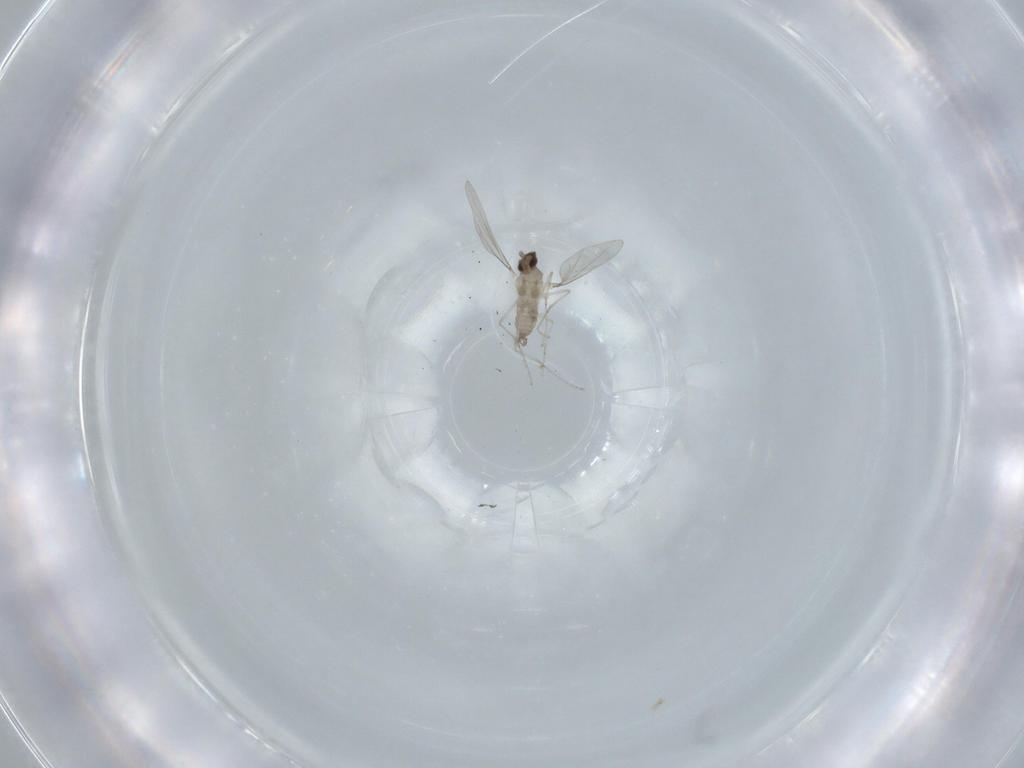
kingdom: Animalia
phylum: Arthropoda
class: Insecta
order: Diptera
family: Cecidomyiidae
